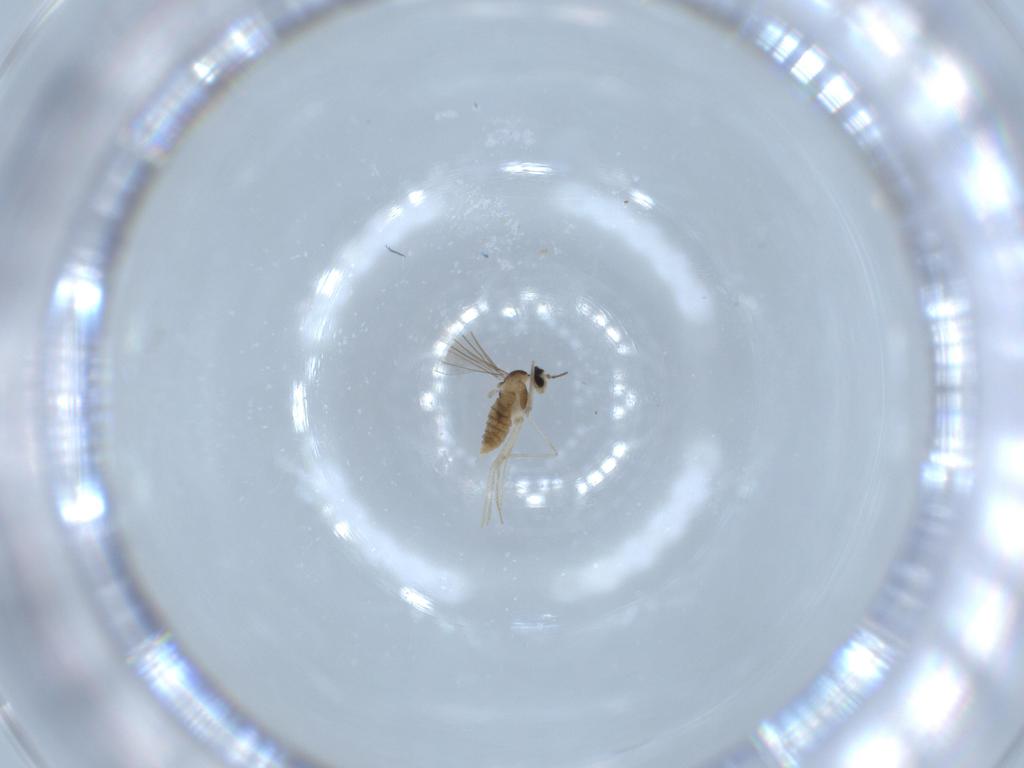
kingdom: Animalia
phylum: Arthropoda
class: Insecta
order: Diptera
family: Cecidomyiidae
